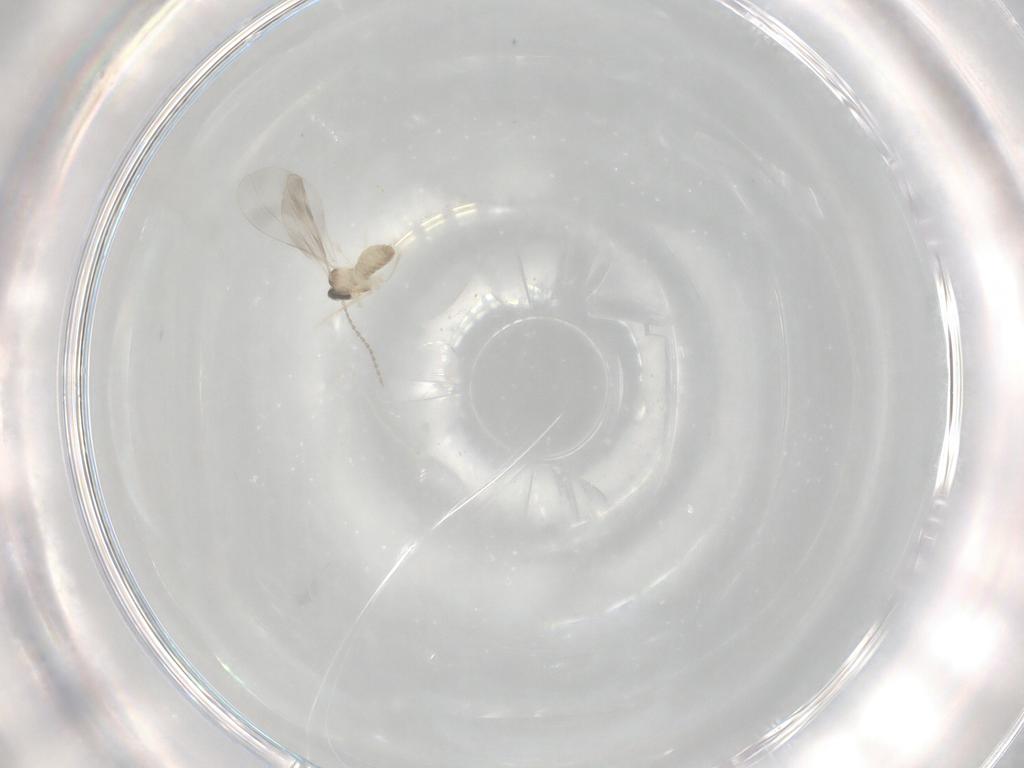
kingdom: Animalia
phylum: Arthropoda
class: Insecta
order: Diptera
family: Cecidomyiidae
